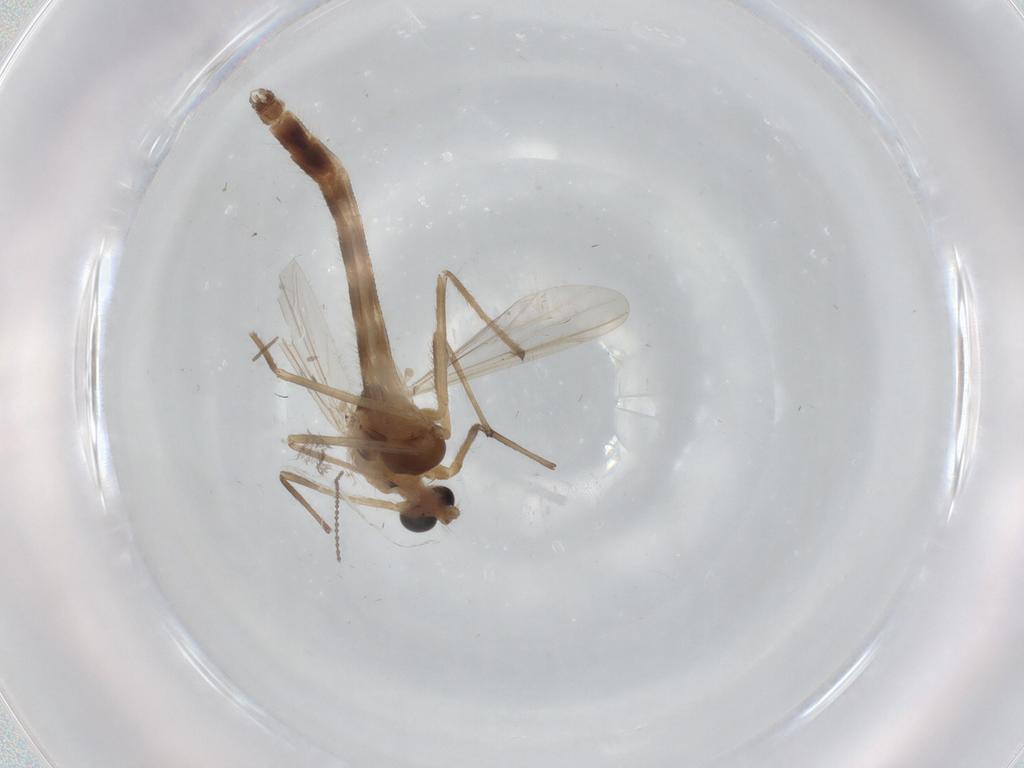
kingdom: Animalia
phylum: Arthropoda
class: Insecta
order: Diptera
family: Chironomidae
